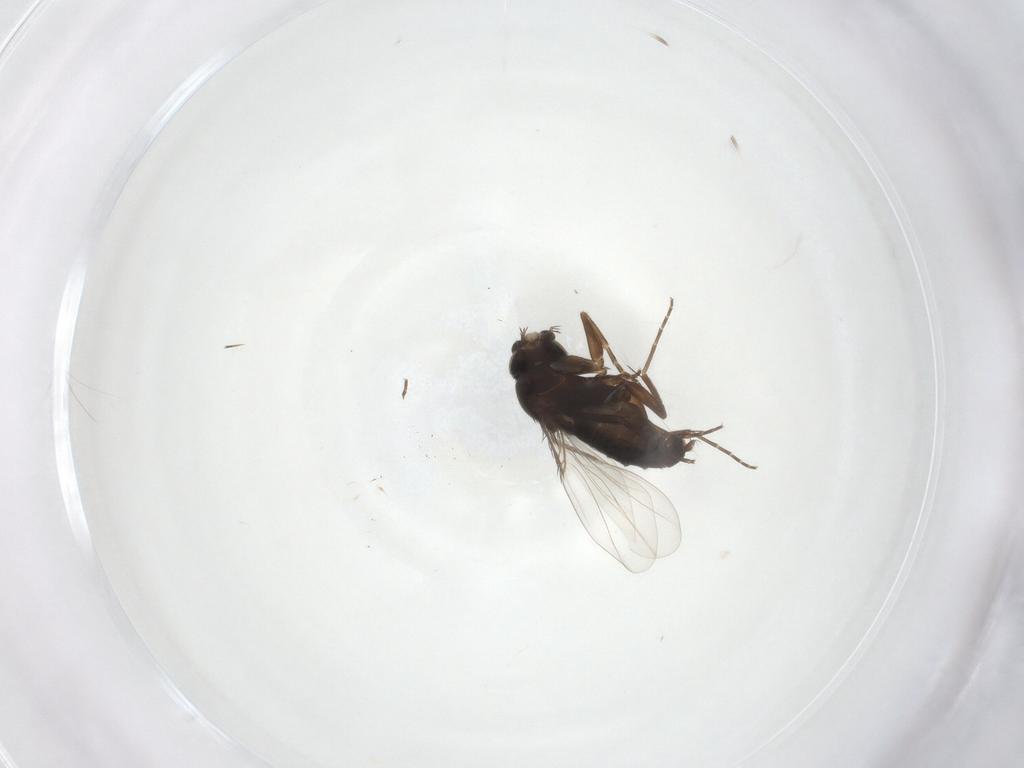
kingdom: Animalia
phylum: Arthropoda
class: Insecta
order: Diptera
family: Phoridae
